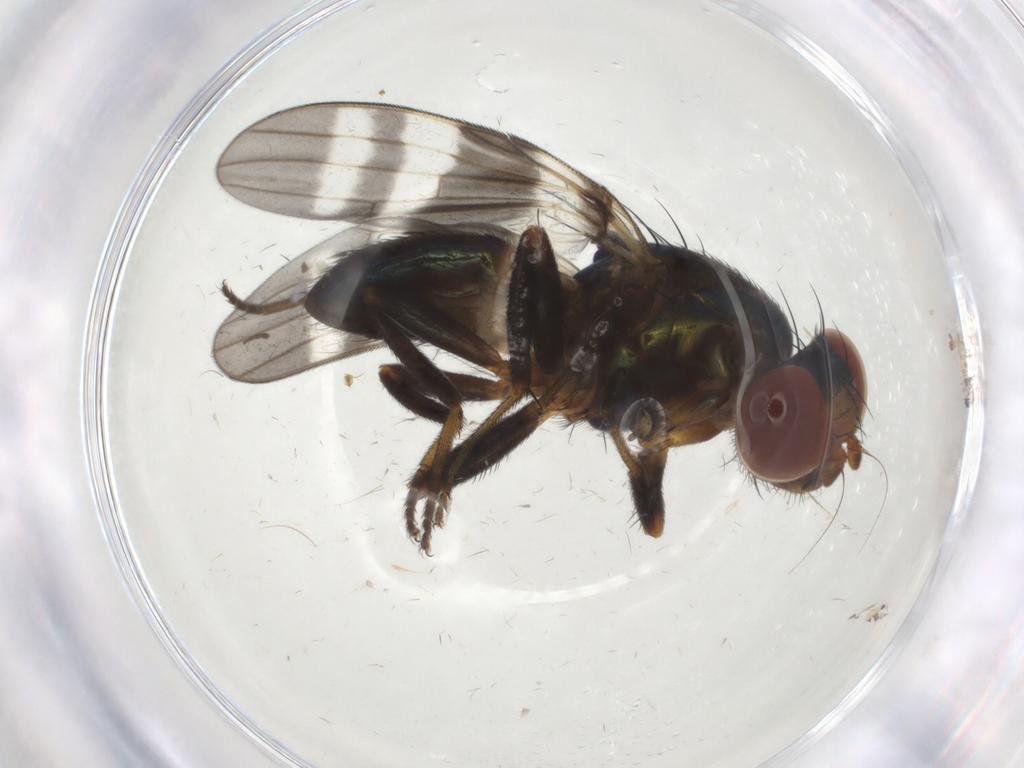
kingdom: Animalia
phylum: Arthropoda
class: Insecta
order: Diptera
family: Ulidiidae
